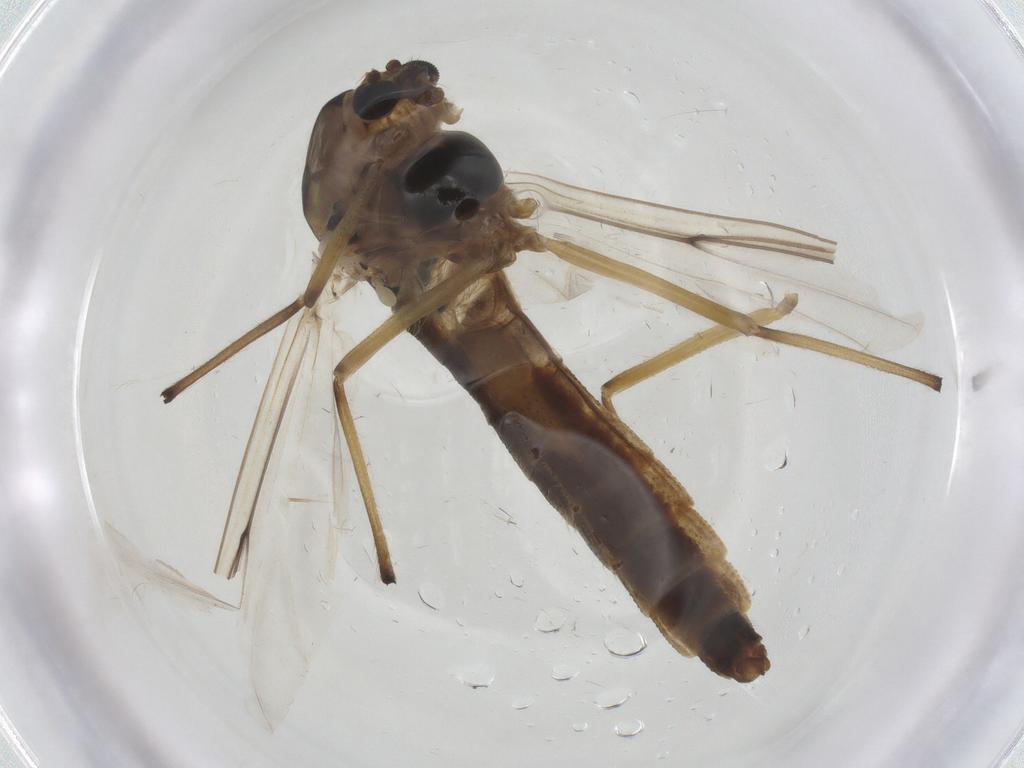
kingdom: Animalia
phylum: Arthropoda
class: Insecta
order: Diptera
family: Chironomidae
